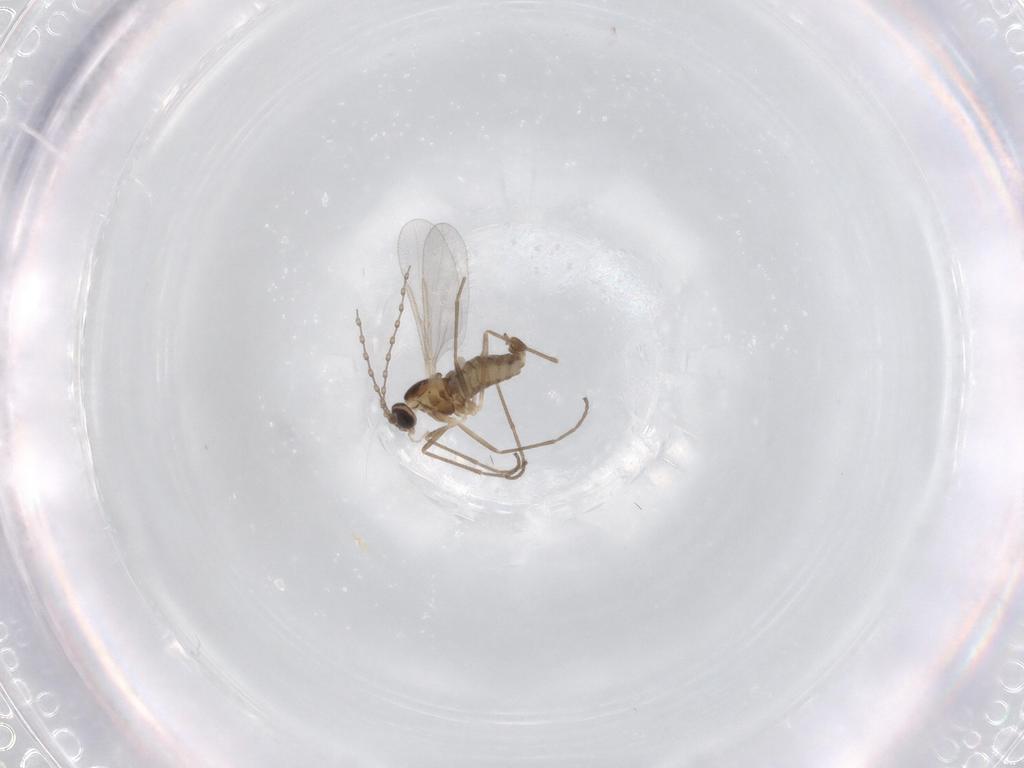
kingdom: Animalia
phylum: Arthropoda
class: Insecta
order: Diptera
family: Cecidomyiidae
